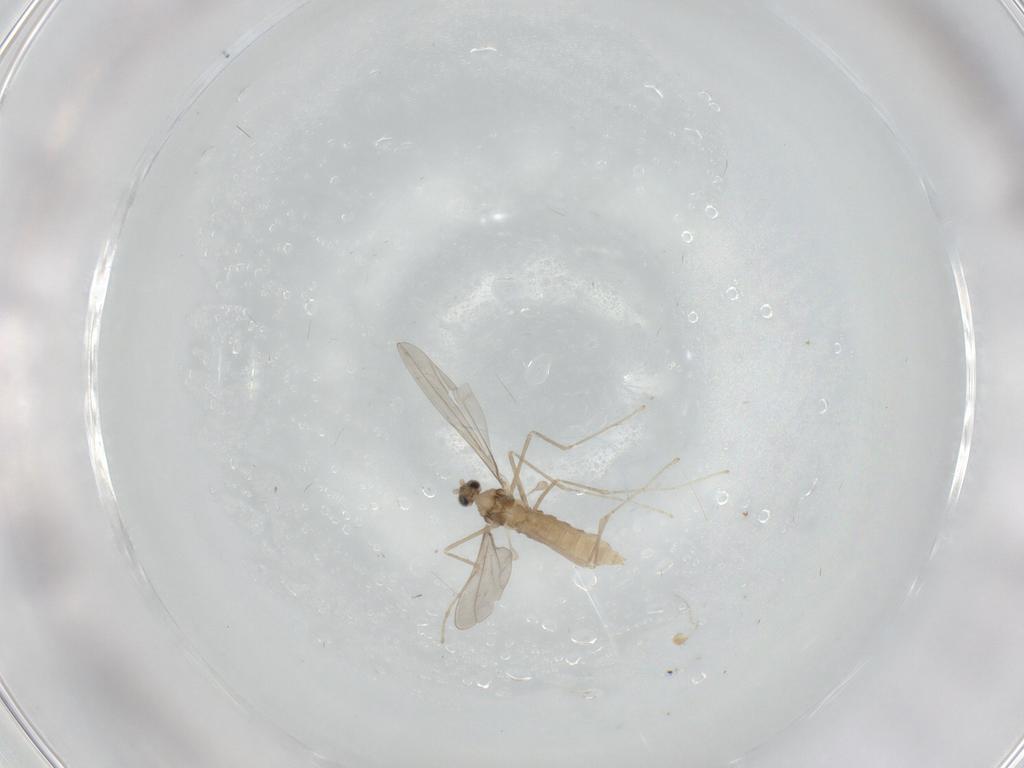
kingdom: Animalia
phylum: Arthropoda
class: Insecta
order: Diptera
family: Cecidomyiidae
